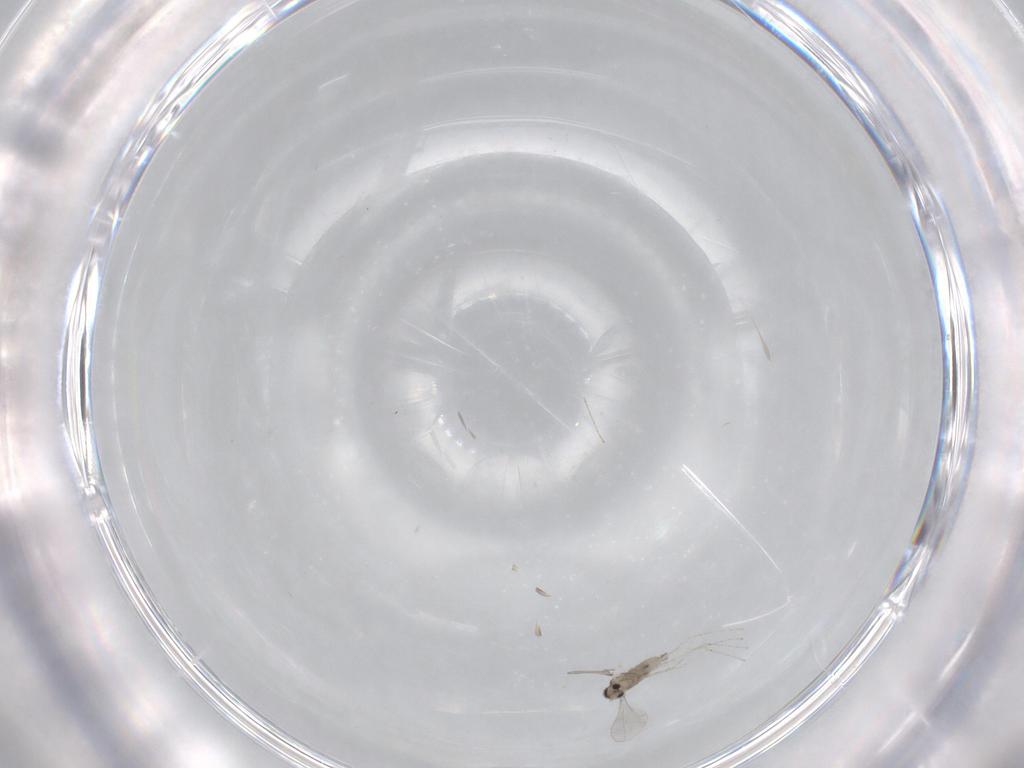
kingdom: Animalia
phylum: Arthropoda
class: Insecta
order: Diptera
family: Cecidomyiidae
